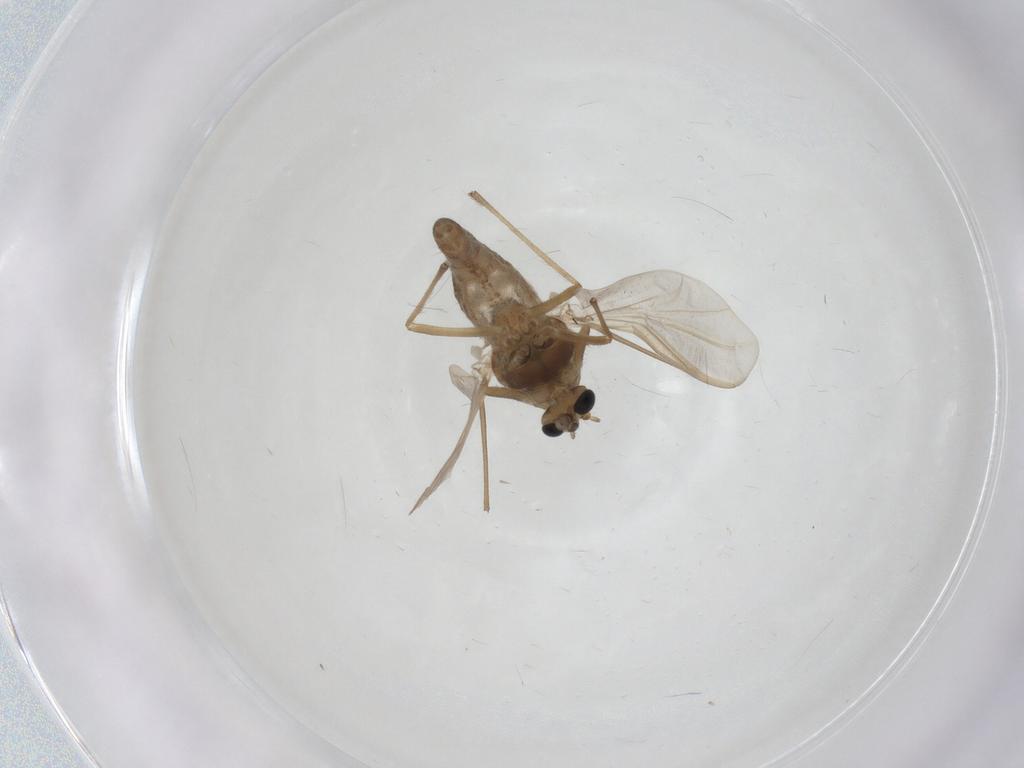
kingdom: Animalia
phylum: Arthropoda
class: Insecta
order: Diptera
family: Chironomidae
